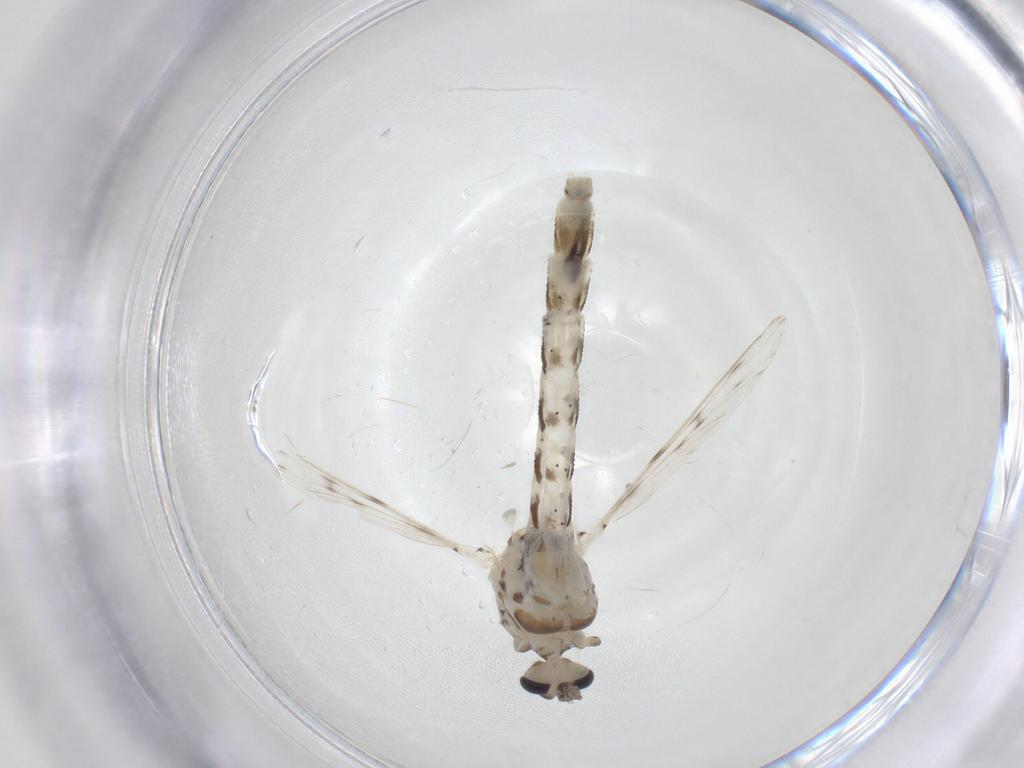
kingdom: Animalia
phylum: Arthropoda
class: Insecta
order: Diptera
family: Chaoboridae
